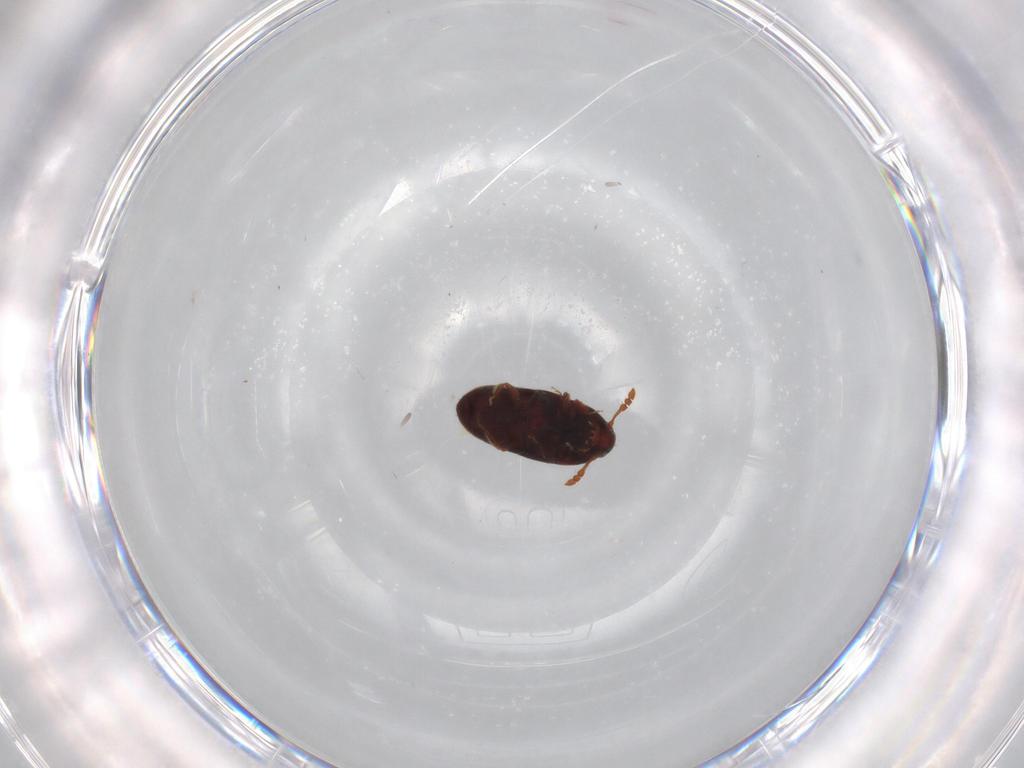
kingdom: Animalia
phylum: Arthropoda
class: Insecta
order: Coleoptera
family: Throscidae
